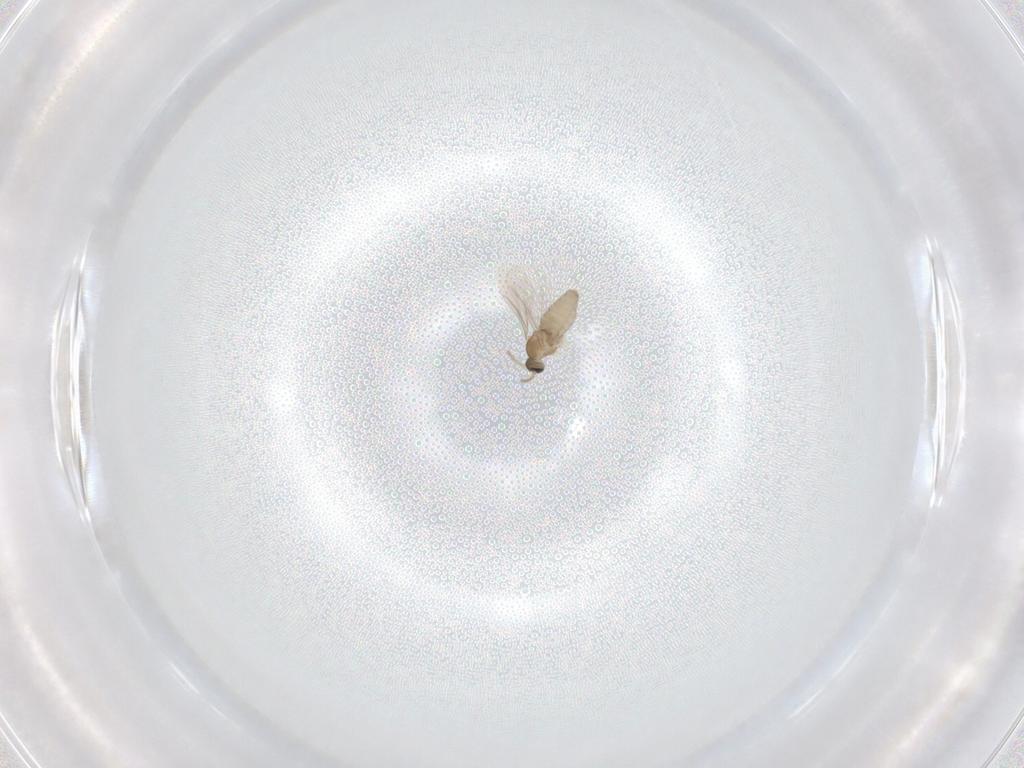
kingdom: Animalia
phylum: Arthropoda
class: Insecta
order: Diptera
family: Cecidomyiidae
